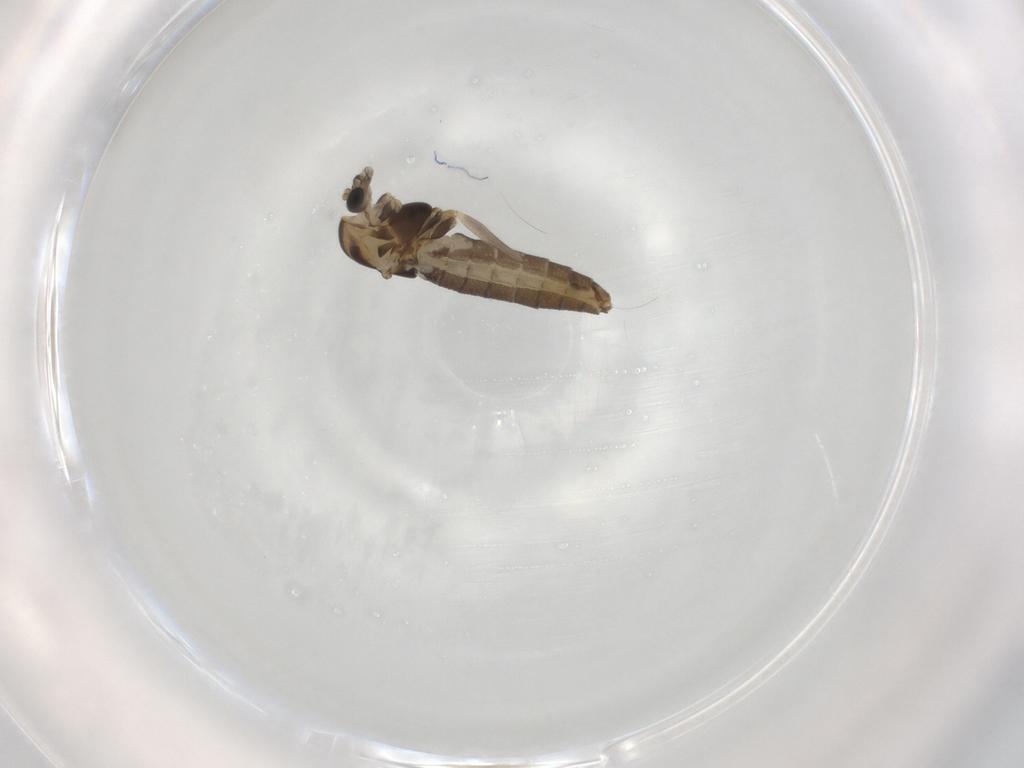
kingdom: Animalia
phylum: Arthropoda
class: Insecta
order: Diptera
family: Chironomidae
